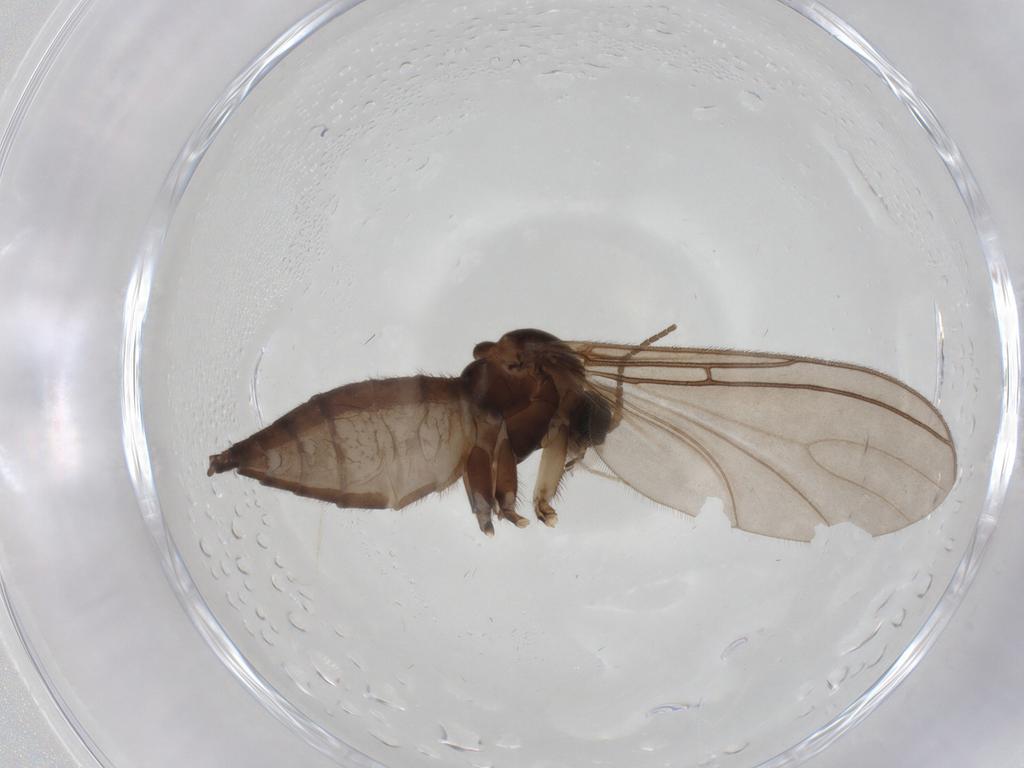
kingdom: Animalia
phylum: Arthropoda
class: Insecta
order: Diptera
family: Sciaridae
